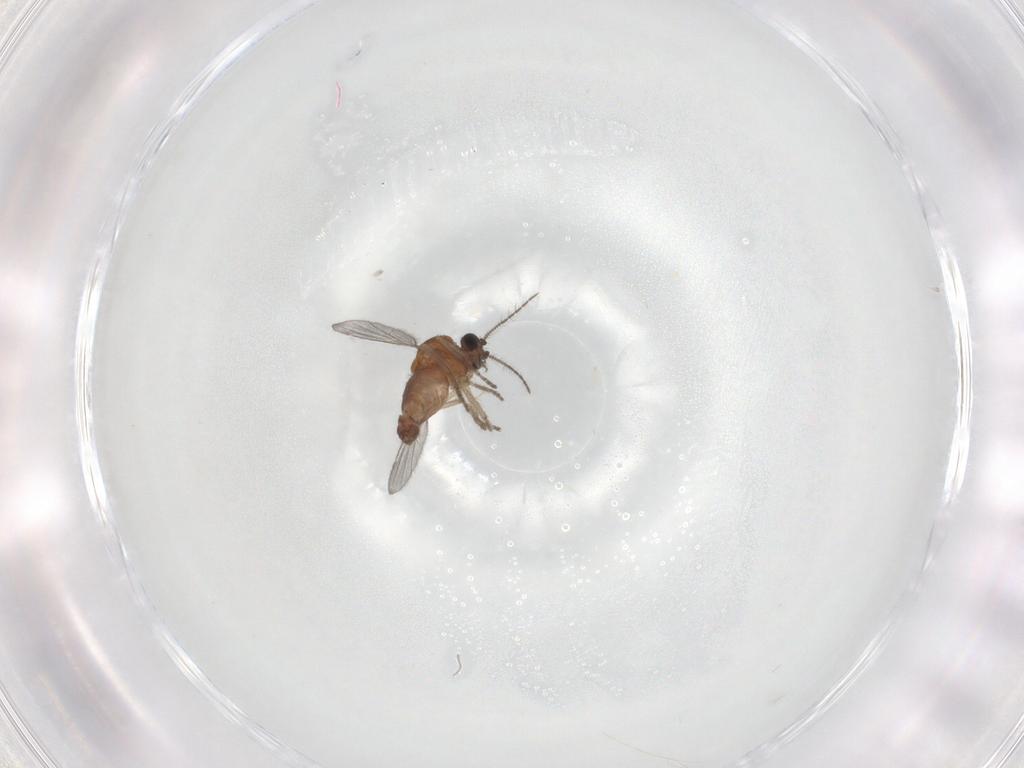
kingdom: Animalia
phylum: Arthropoda
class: Insecta
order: Diptera
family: Ceratopogonidae
